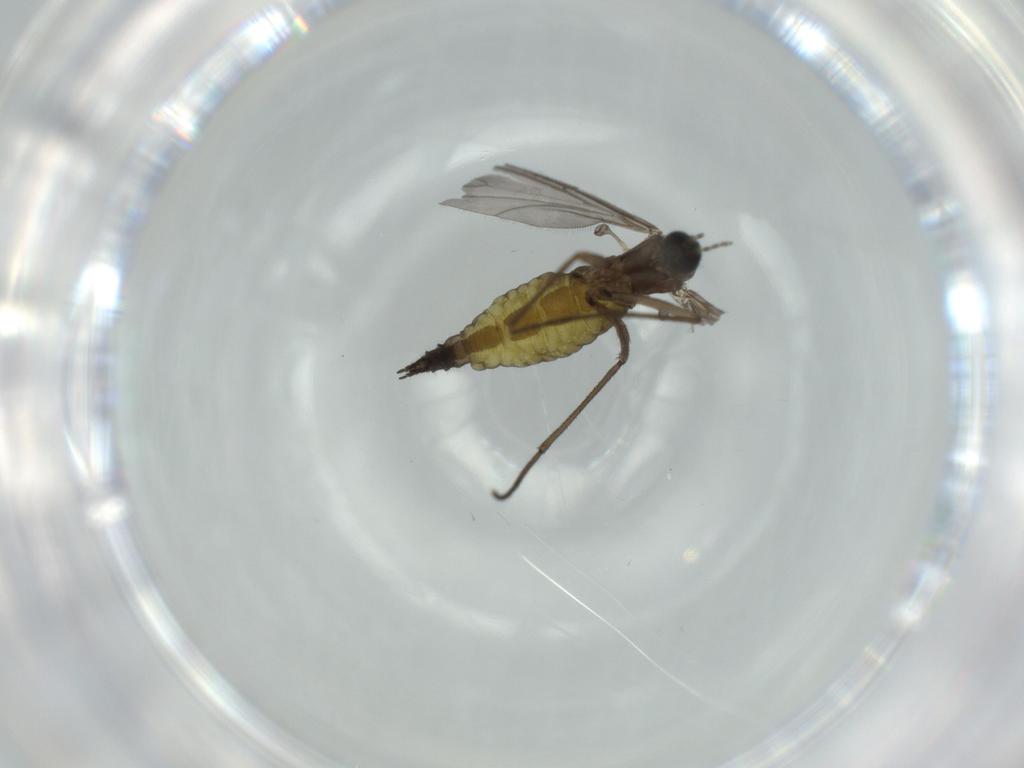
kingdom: Animalia
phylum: Arthropoda
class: Insecta
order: Diptera
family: Sciaridae
